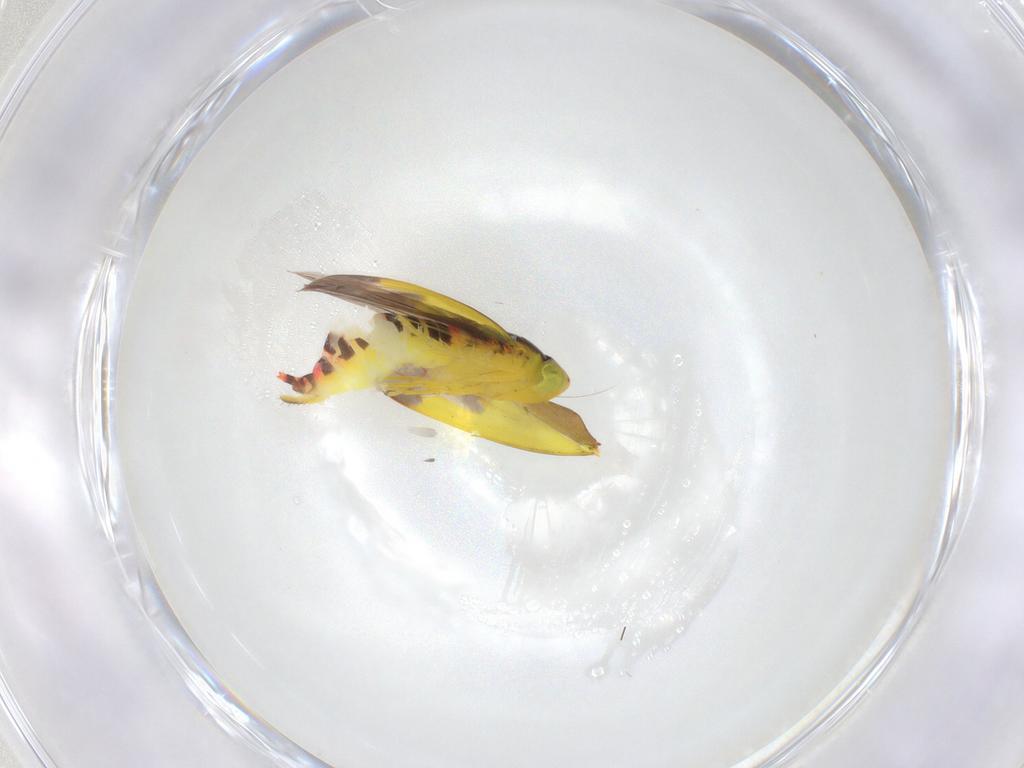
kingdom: Animalia
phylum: Arthropoda
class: Insecta
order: Hemiptera
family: Cicadellidae
